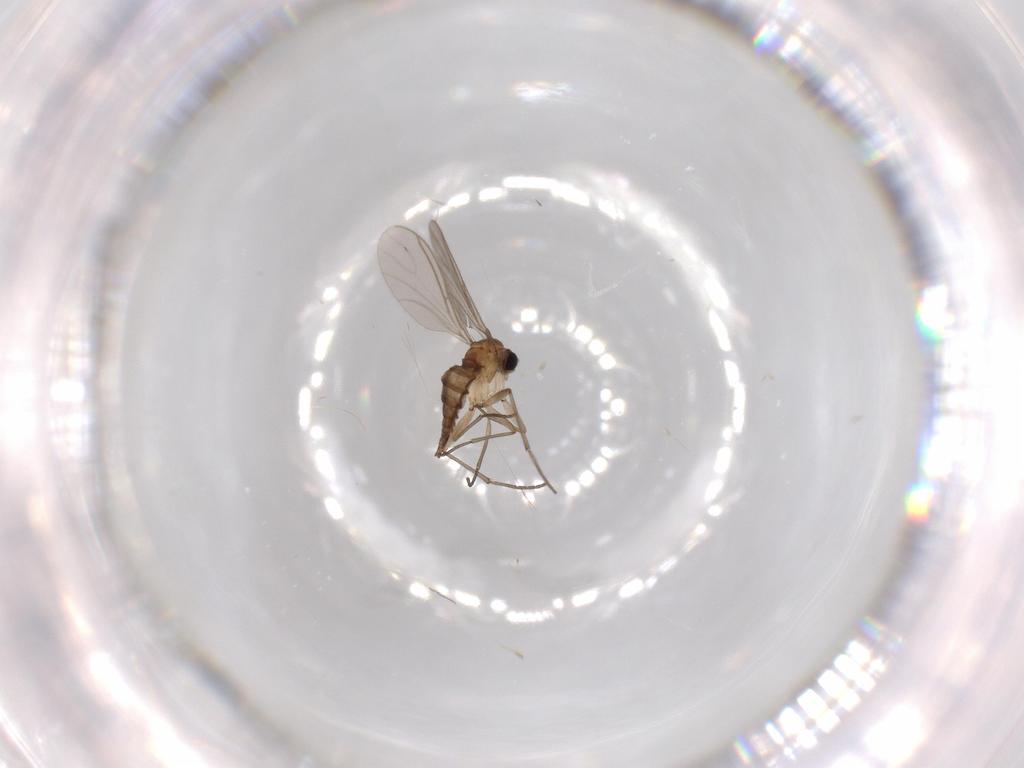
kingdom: Animalia
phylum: Arthropoda
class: Insecta
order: Diptera
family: Sciaridae
